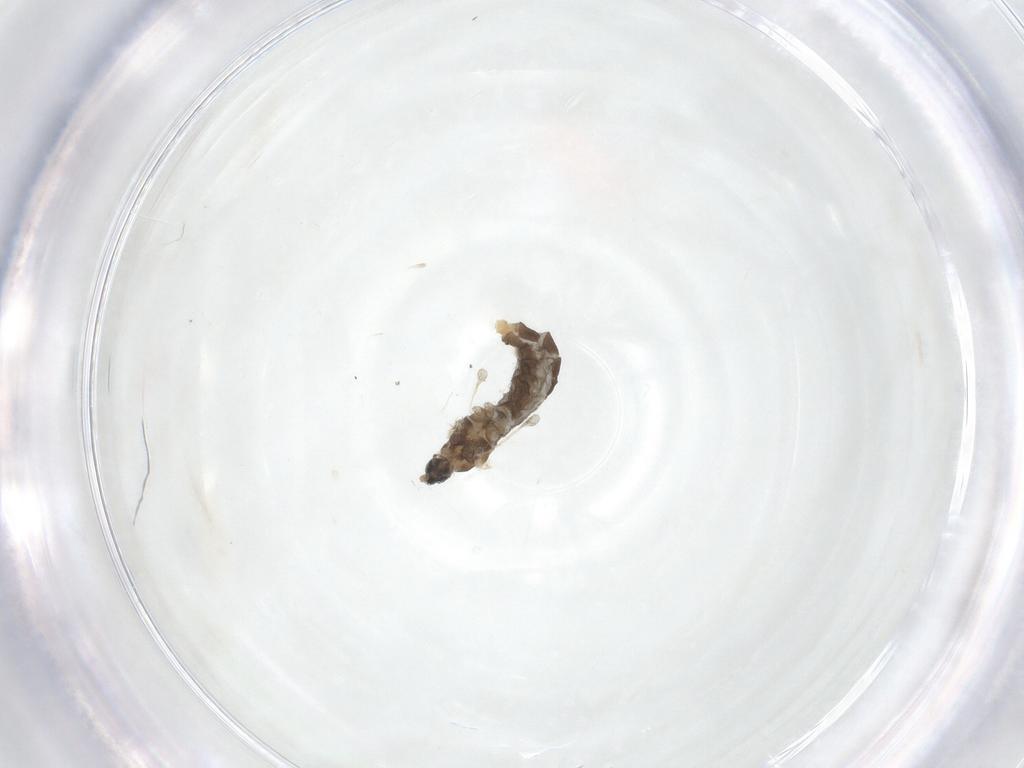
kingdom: Animalia
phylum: Arthropoda
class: Insecta
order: Diptera
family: Cecidomyiidae
